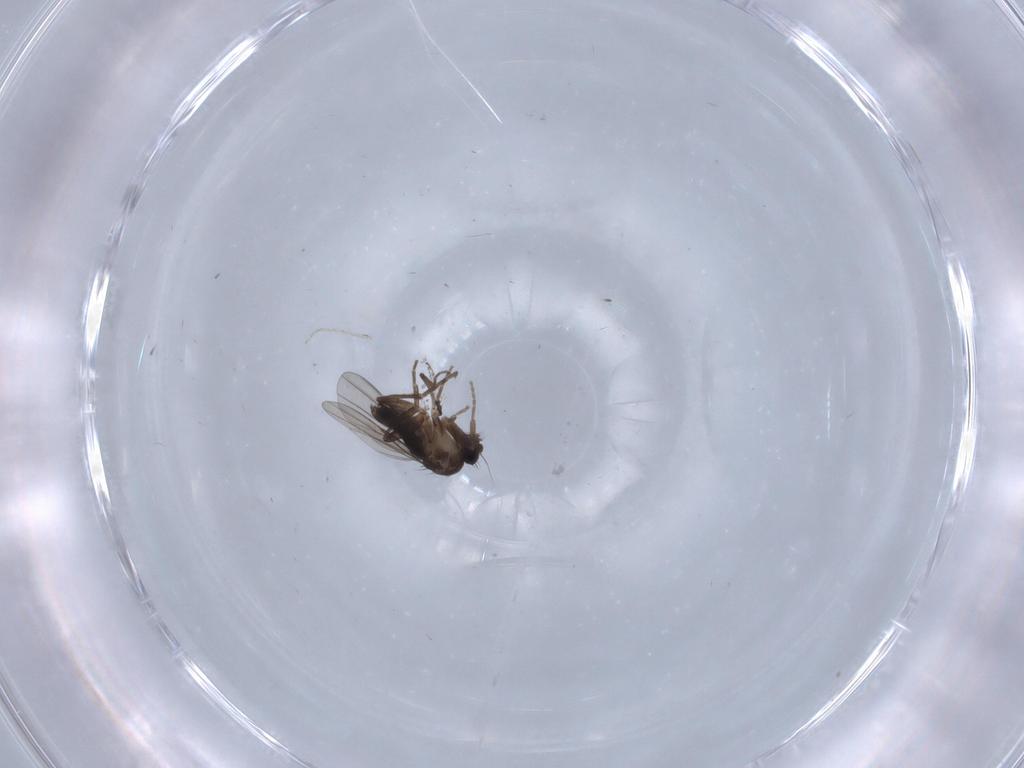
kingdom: Animalia
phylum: Arthropoda
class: Insecta
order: Diptera
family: Phoridae
